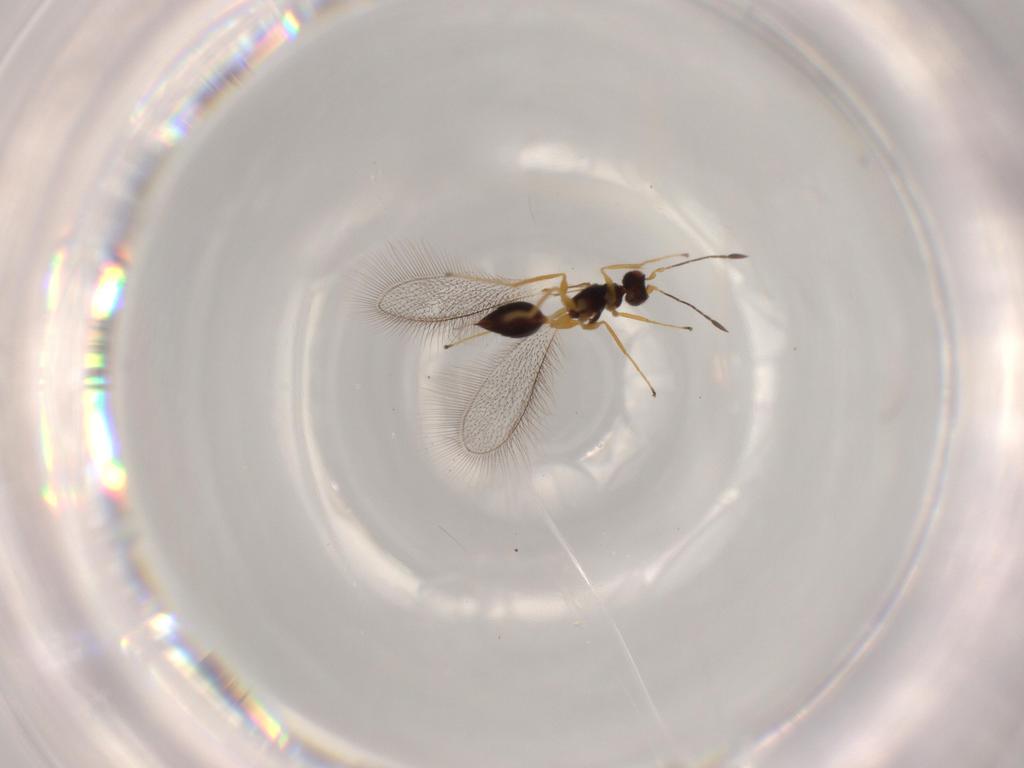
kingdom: Animalia
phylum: Arthropoda
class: Insecta
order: Hymenoptera
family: Mymaridae
